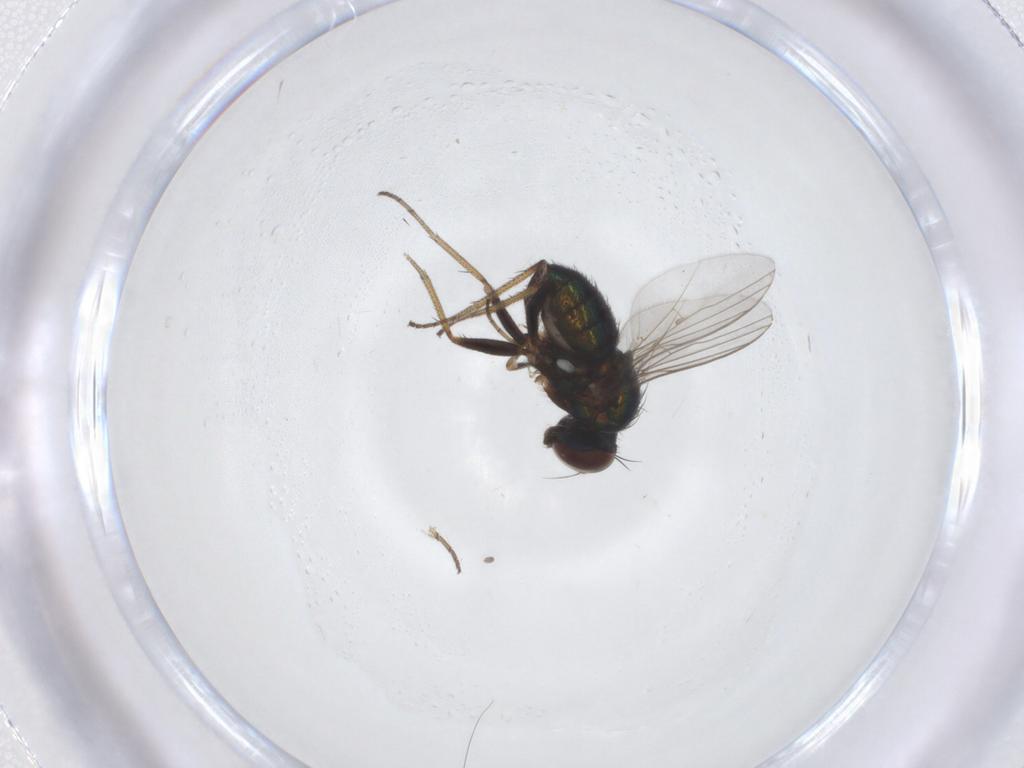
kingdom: Animalia
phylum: Arthropoda
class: Insecta
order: Diptera
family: Chironomidae
